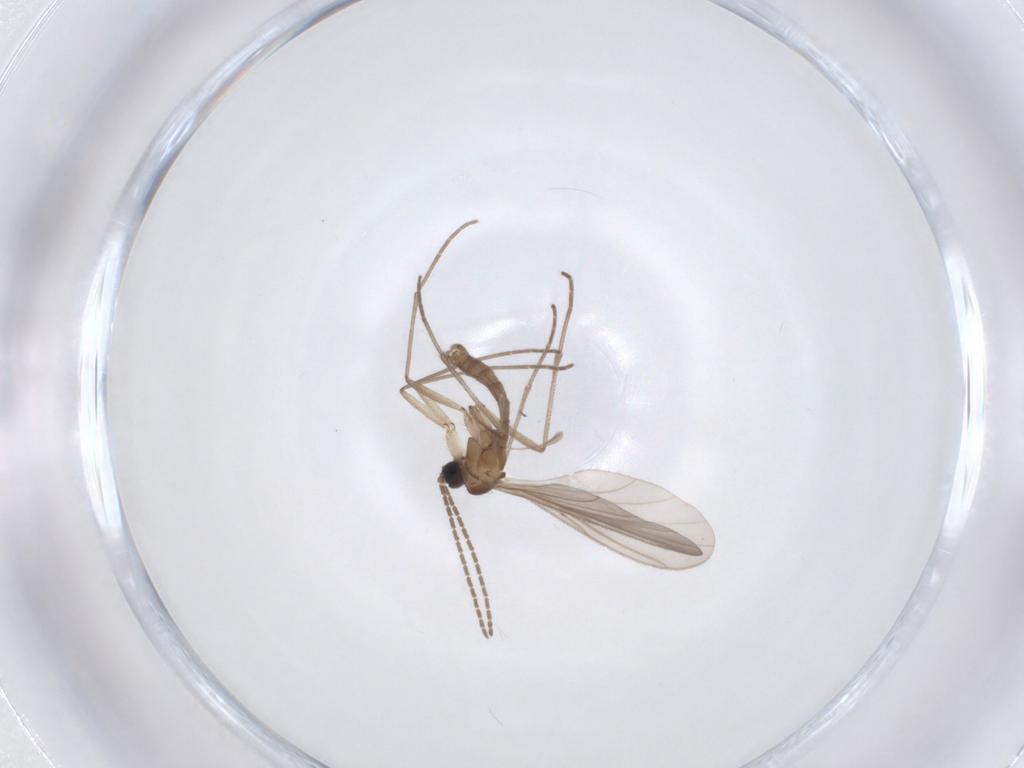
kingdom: Animalia
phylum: Arthropoda
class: Insecta
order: Diptera
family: Sciaridae
